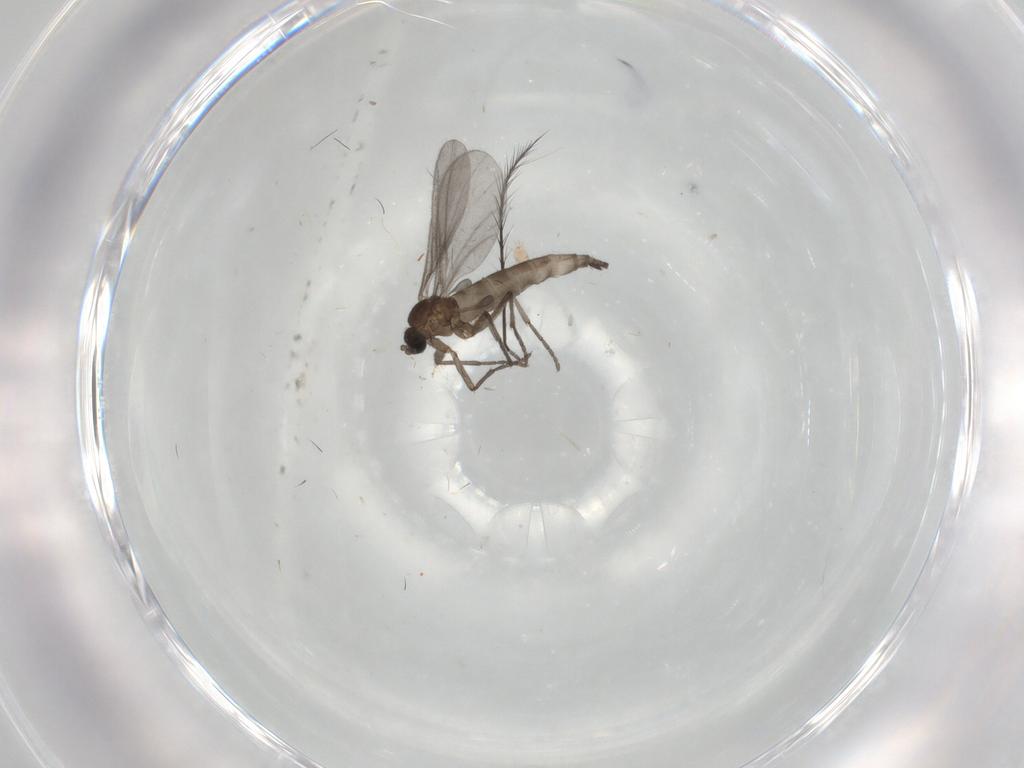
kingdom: Animalia
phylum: Arthropoda
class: Insecta
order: Diptera
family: Sciaridae
